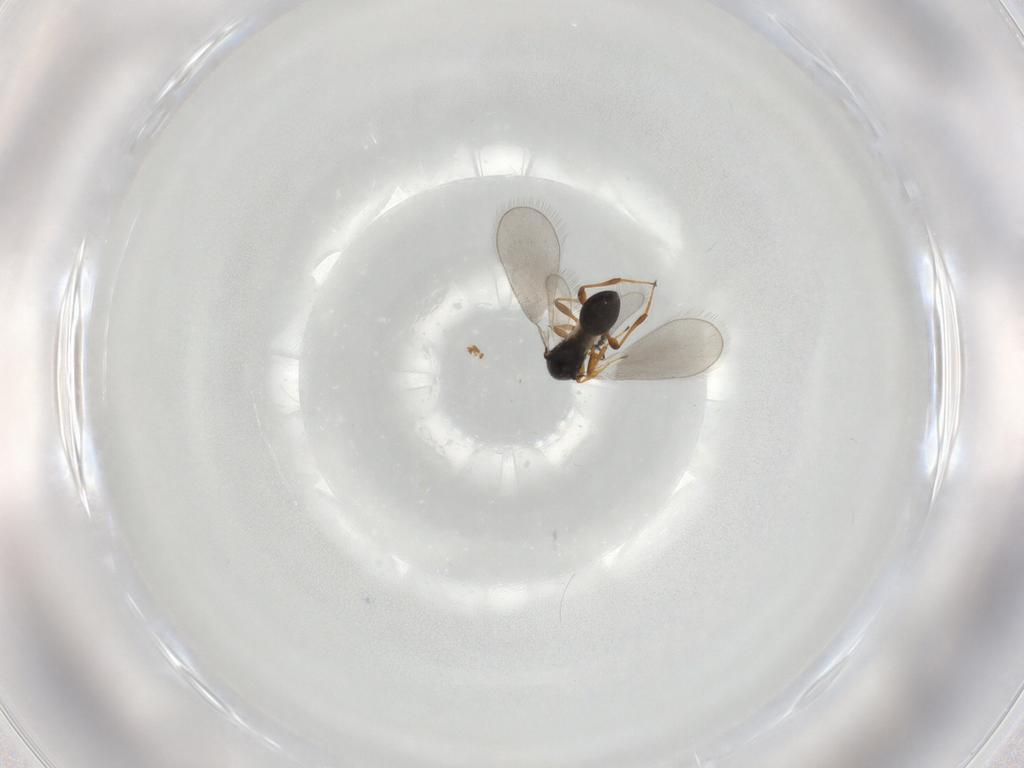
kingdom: Animalia
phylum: Arthropoda
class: Insecta
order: Hymenoptera
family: Platygastridae
